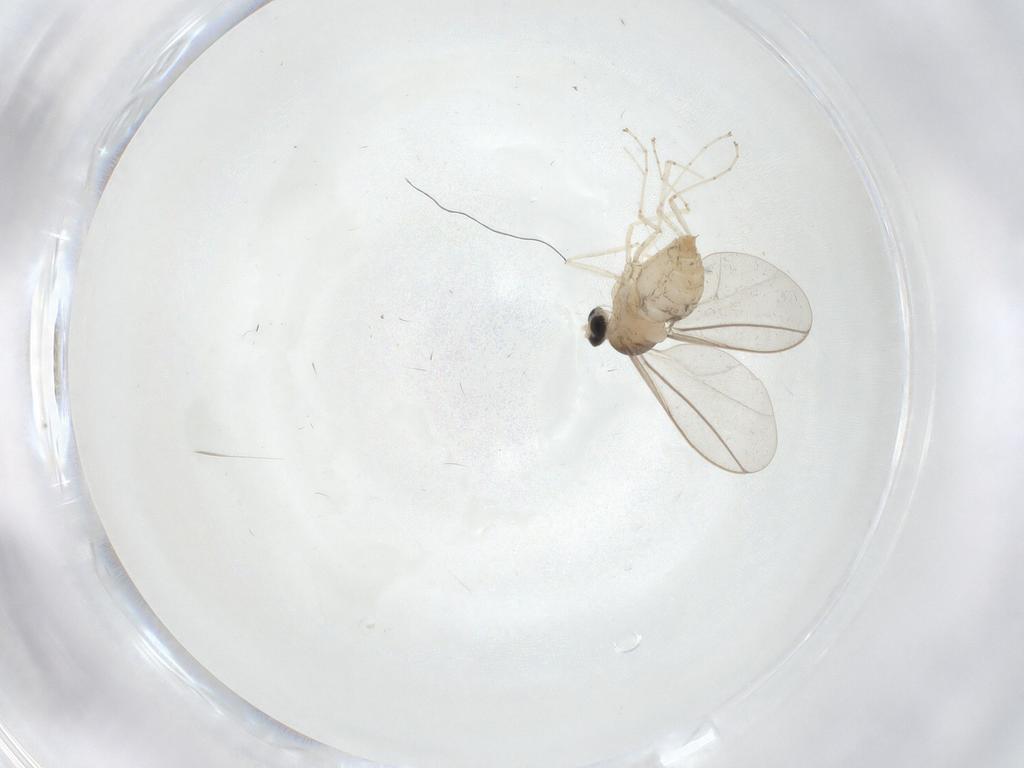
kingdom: Animalia
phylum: Arthropoda
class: Insecta
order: Diptera
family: Cecidomyiidae
